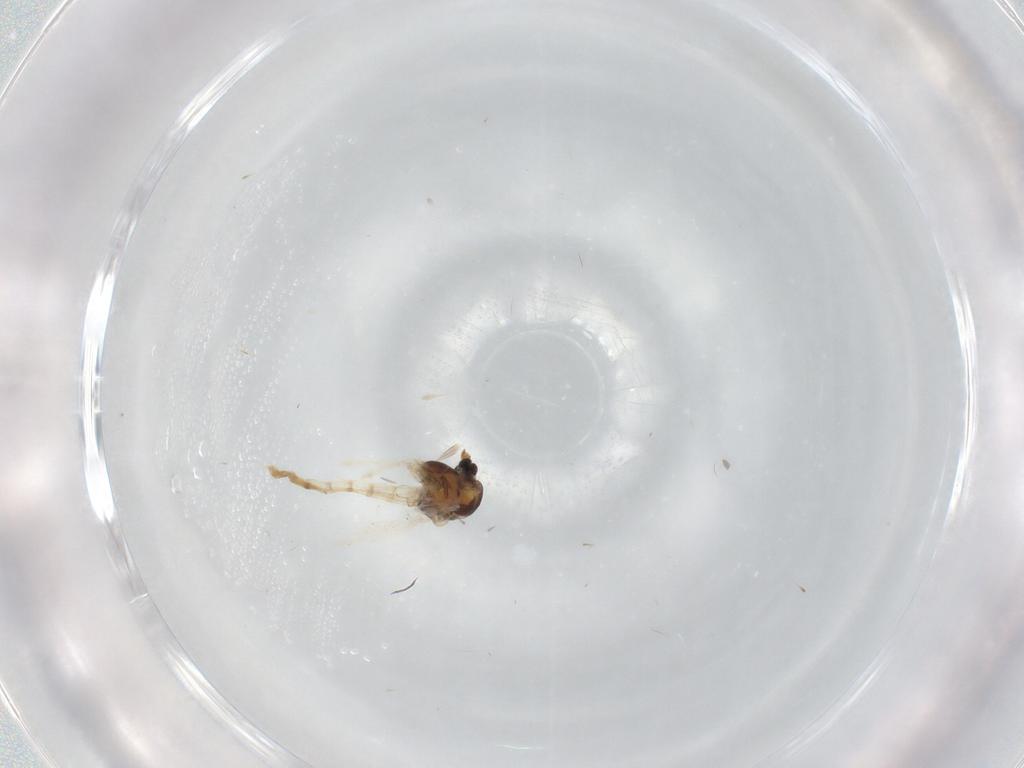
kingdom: Animalia
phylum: Arthropoda
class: Insecta
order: Diptera
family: Chironomidae
